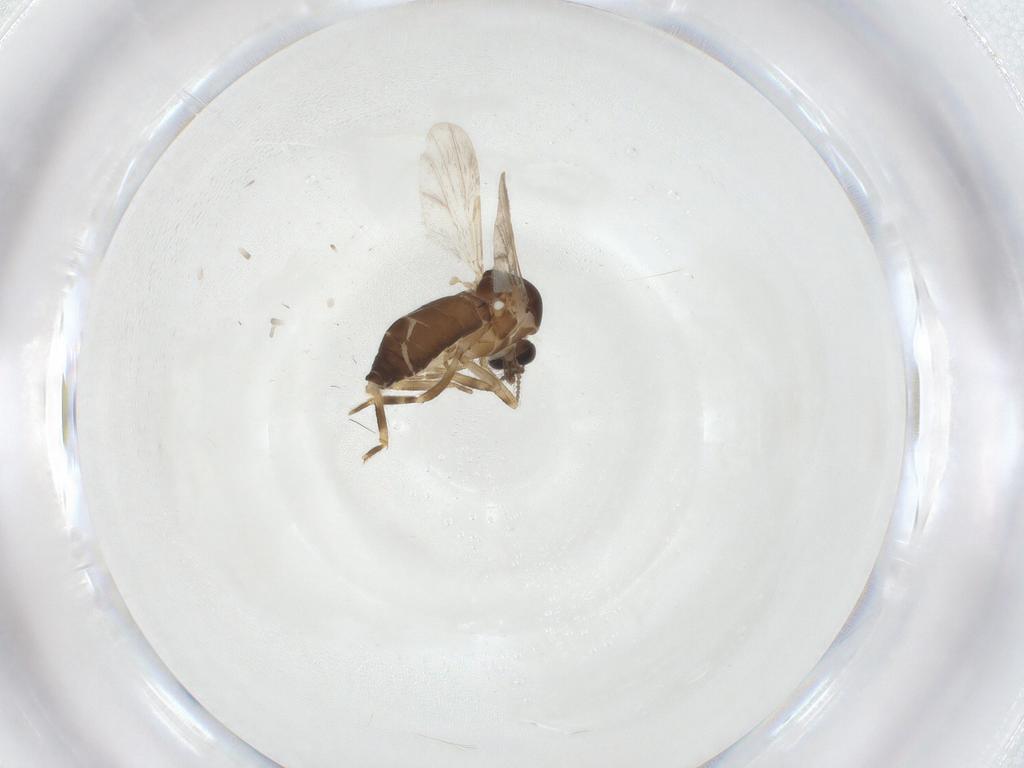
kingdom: Animalia
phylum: Arthropoda
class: Insecta
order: Diptera
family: Ceratopogonidae
